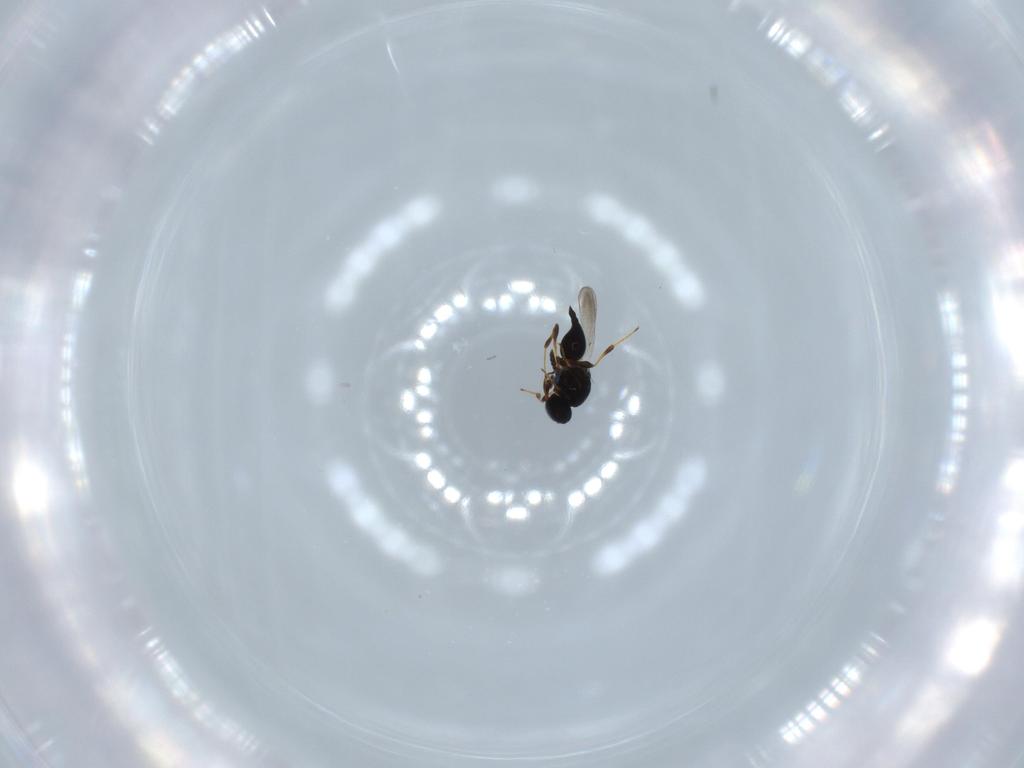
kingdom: Animalia
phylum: Arthropoda
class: Insecta
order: Hymenoptera
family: Platygastridae
